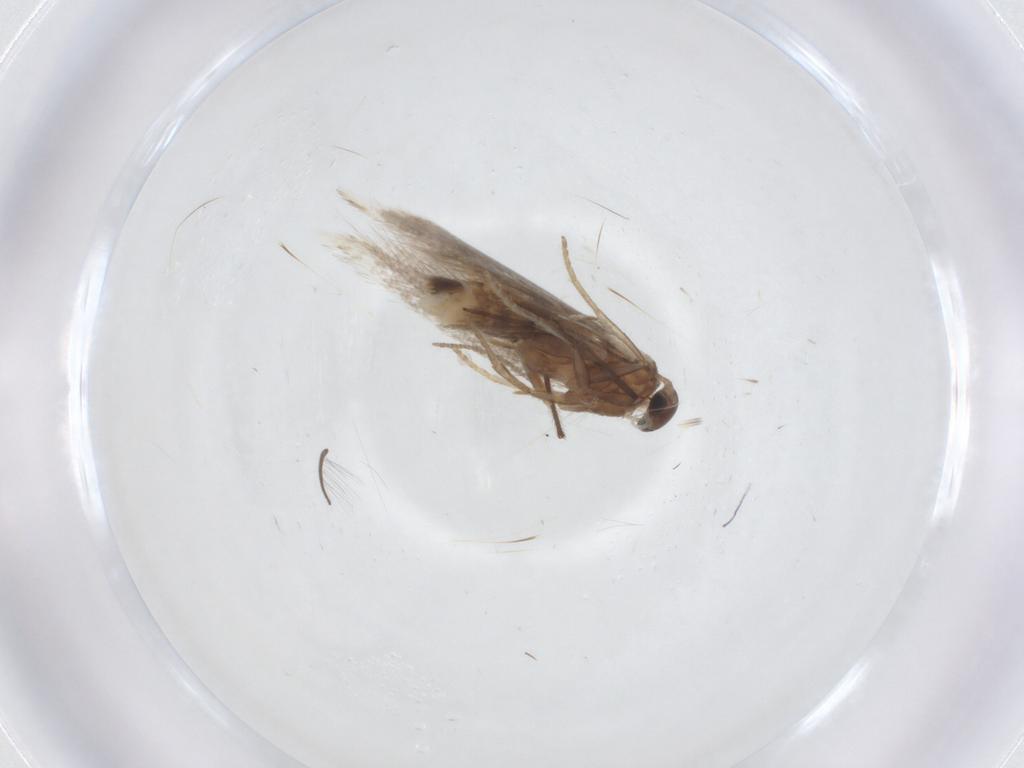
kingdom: Animalia
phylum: Arthropoda
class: Insecta
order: Lepidoptera
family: Elachistidae
